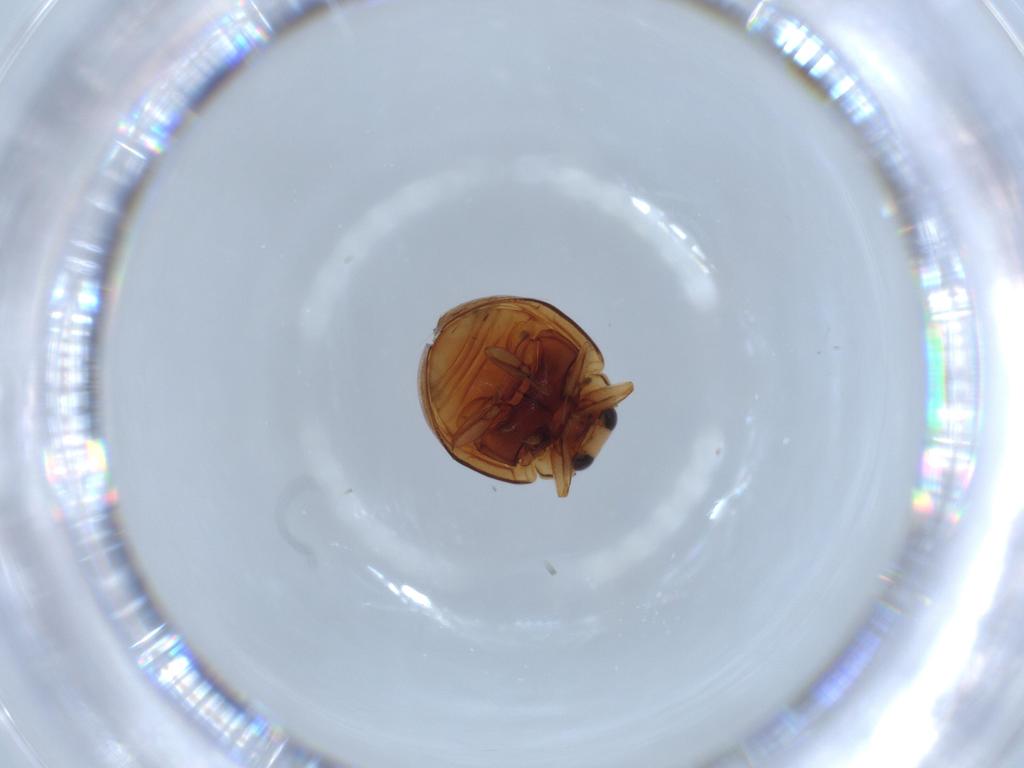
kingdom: Animalia
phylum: Arthropoda
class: Insecta
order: Coleoptera
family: Coccinellidae
